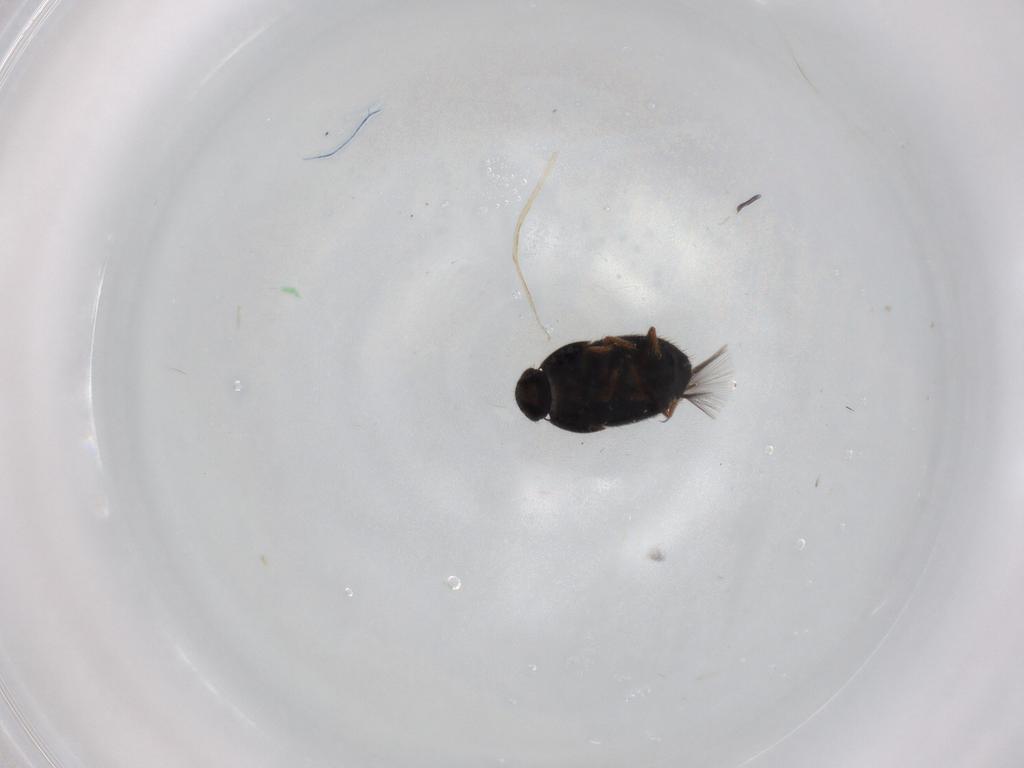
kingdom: Animalia
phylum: Arthropoda
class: Insecta
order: Coleoptera
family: Ptiliidae
